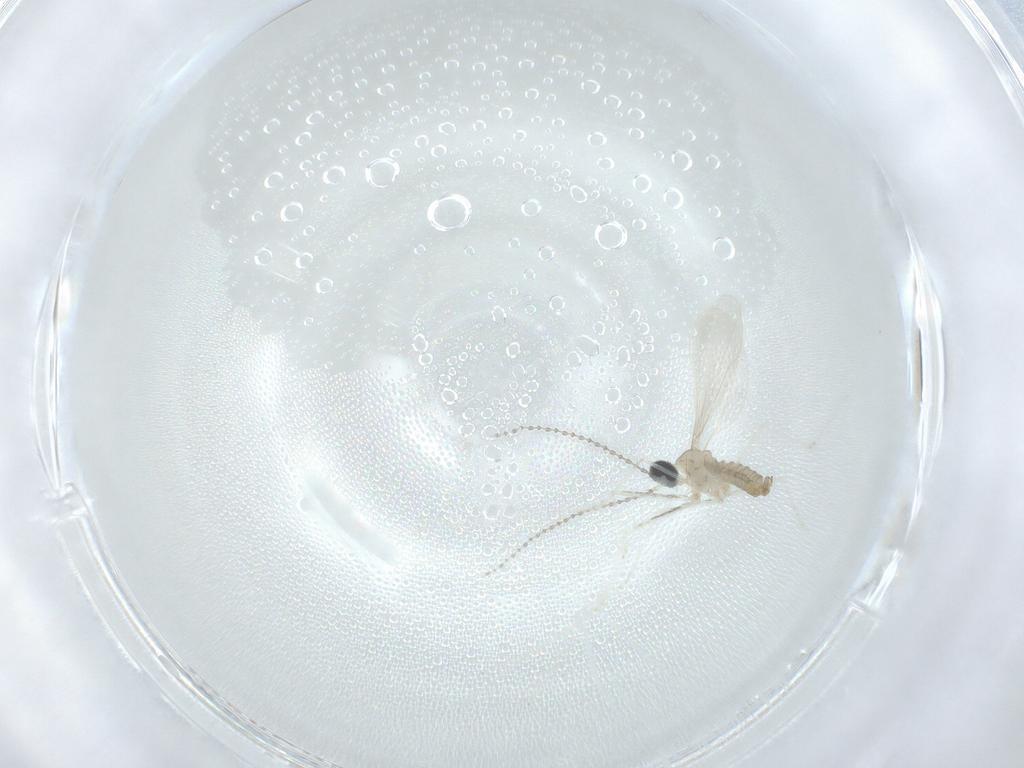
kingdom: Animalia
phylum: Arthropoda
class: Insecta
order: Diptera
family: Cecidomyiidae
